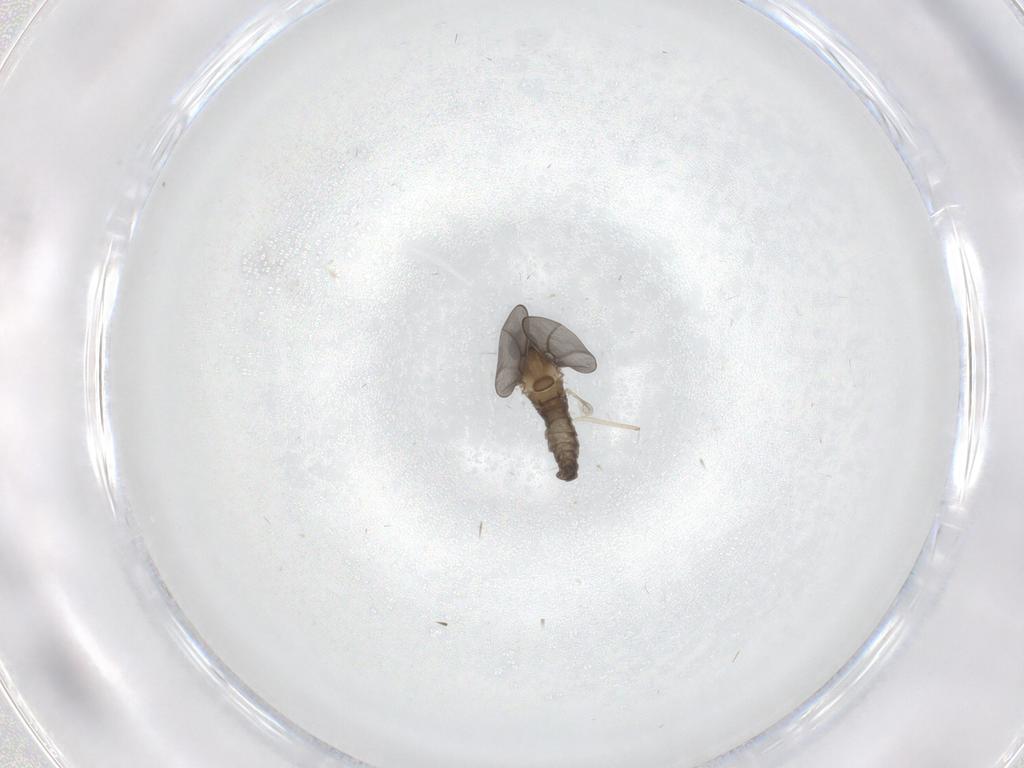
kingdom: Animalia
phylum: Arthropoda
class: Insecta
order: Diptera
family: Cecidomyiidae
